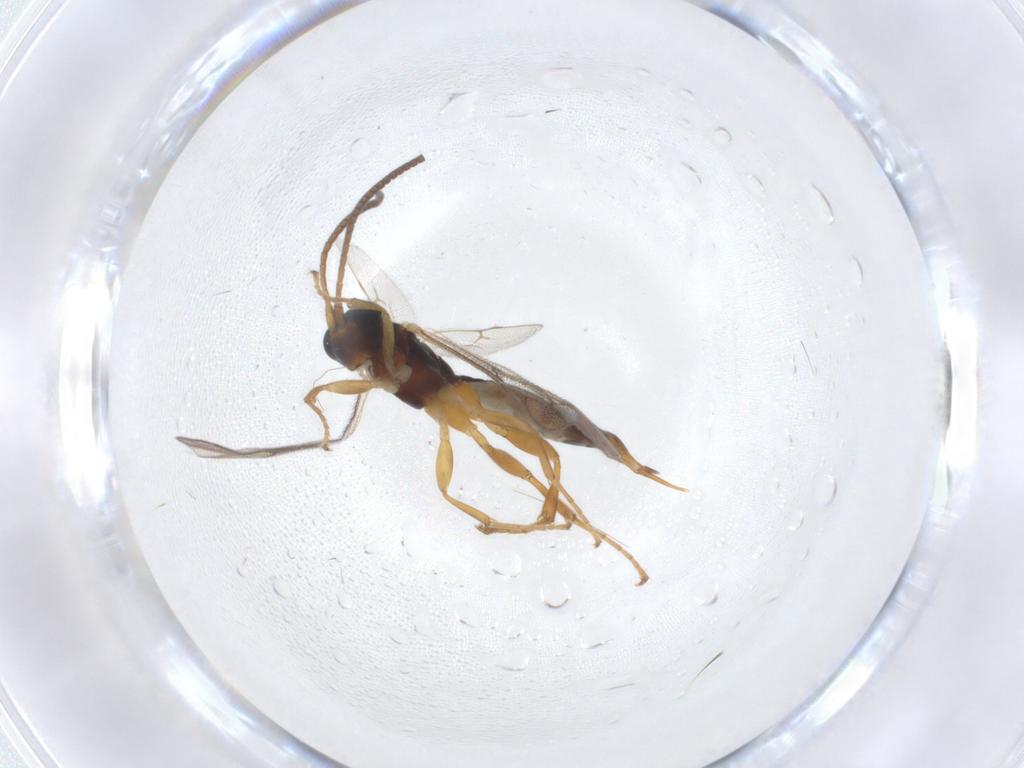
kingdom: Animalia
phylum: Arthropoda
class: Insecta
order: Hymenoptera
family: Ichneumonidae
